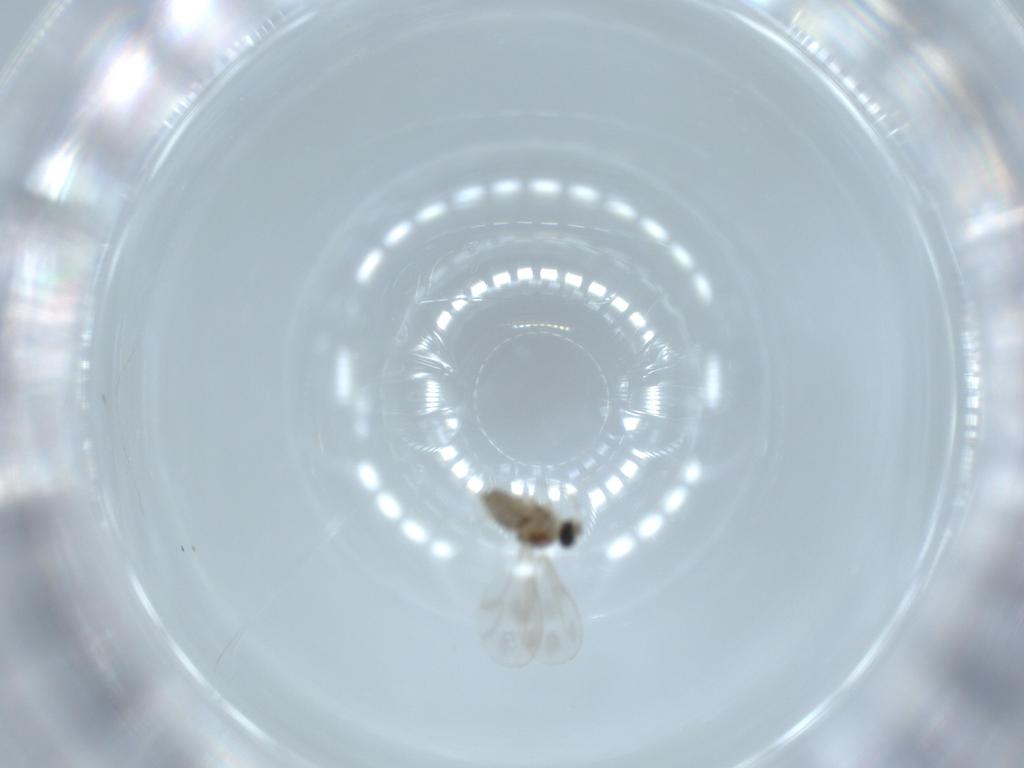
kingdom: Animalia
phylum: Arthropoda
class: Insecta
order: Diptera
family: Cecidomyiidae
